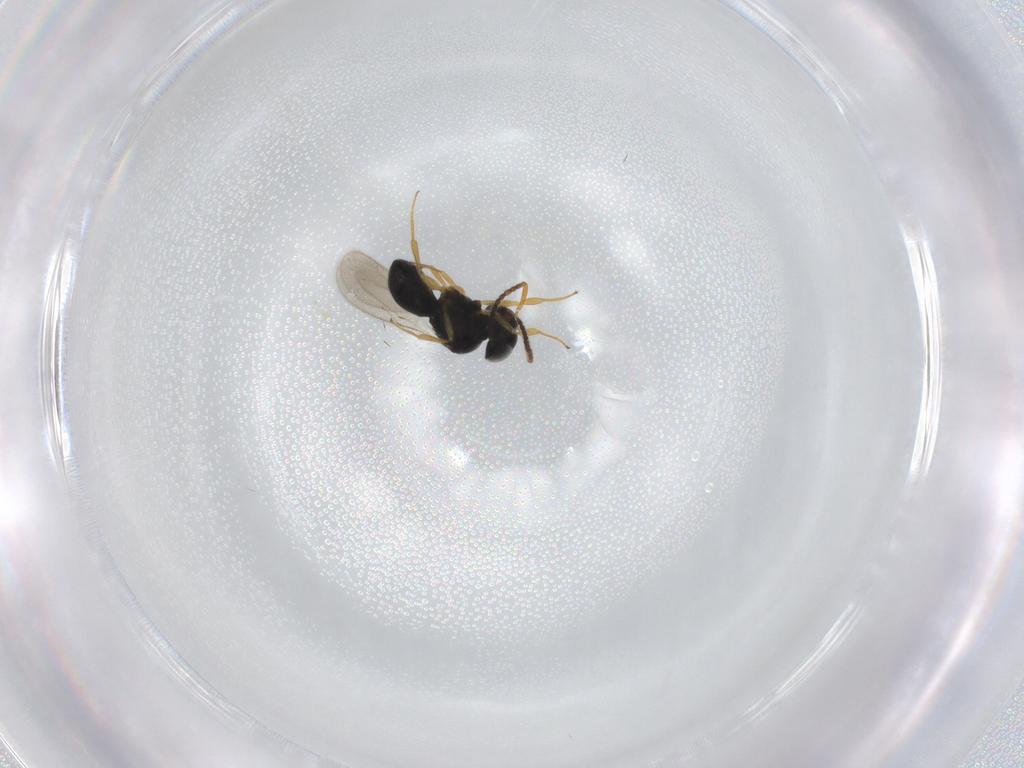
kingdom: Animalia
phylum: Arthropoda
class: Insecta
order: Hymenoptera
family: Scelionidae
